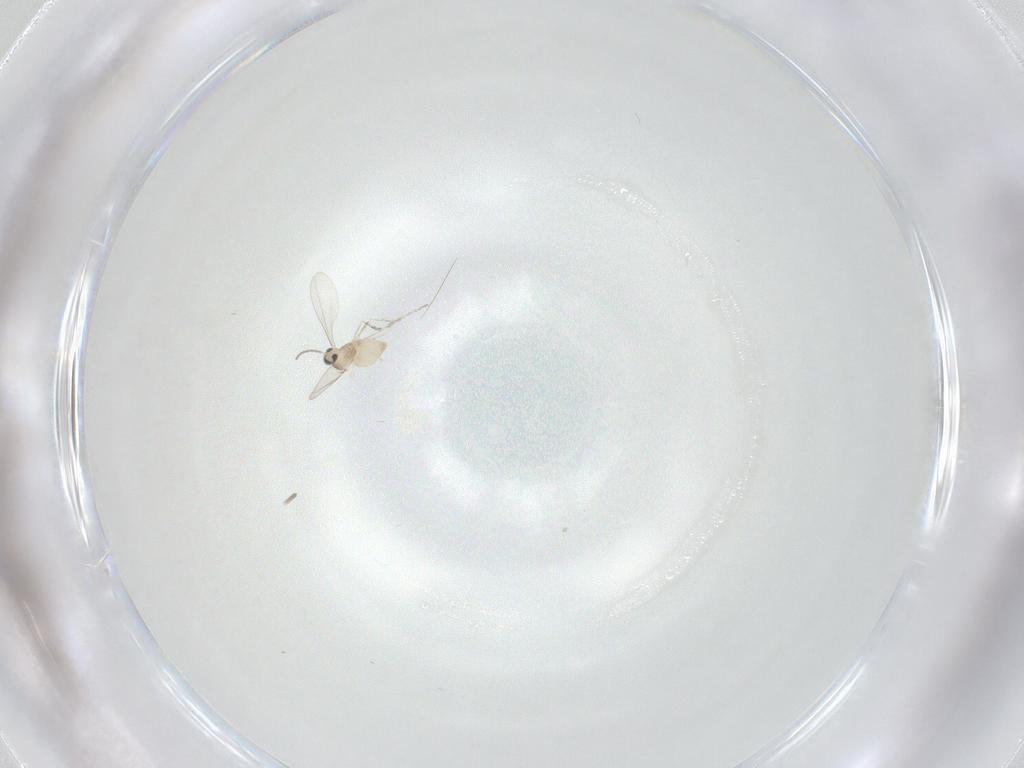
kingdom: Animalia
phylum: Arthropoda
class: Insecta
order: Diptera
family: Cecidomyiidae
